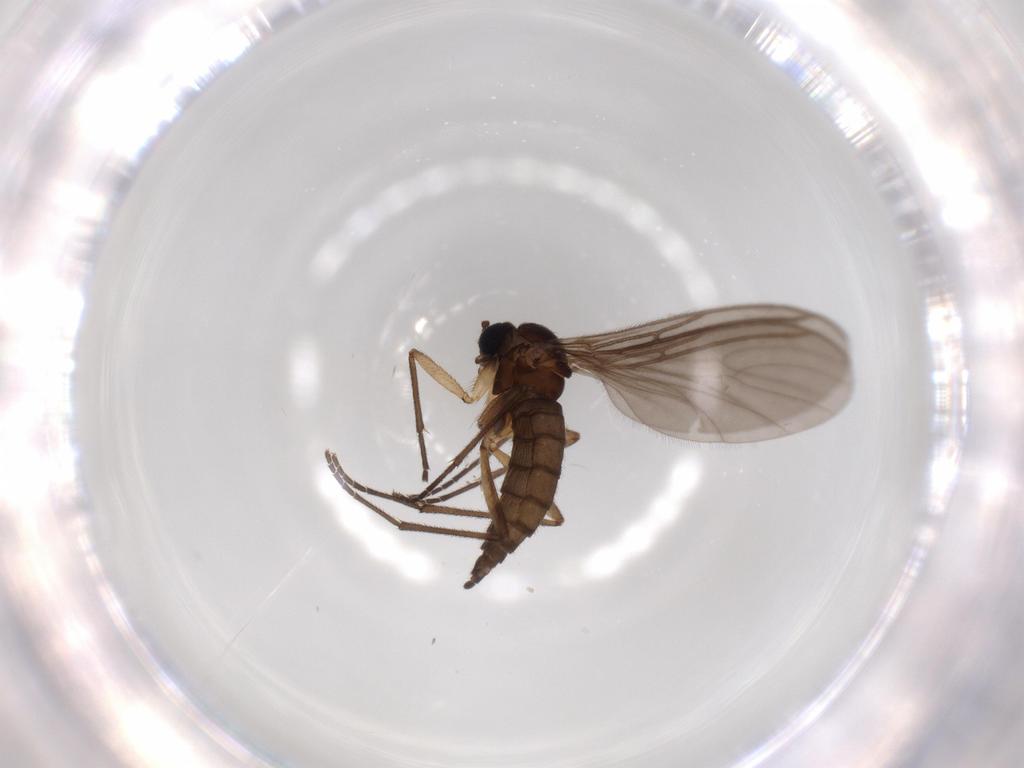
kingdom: Animalia
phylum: Arthropoda
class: Insecta
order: Diptera
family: Sciaridae
